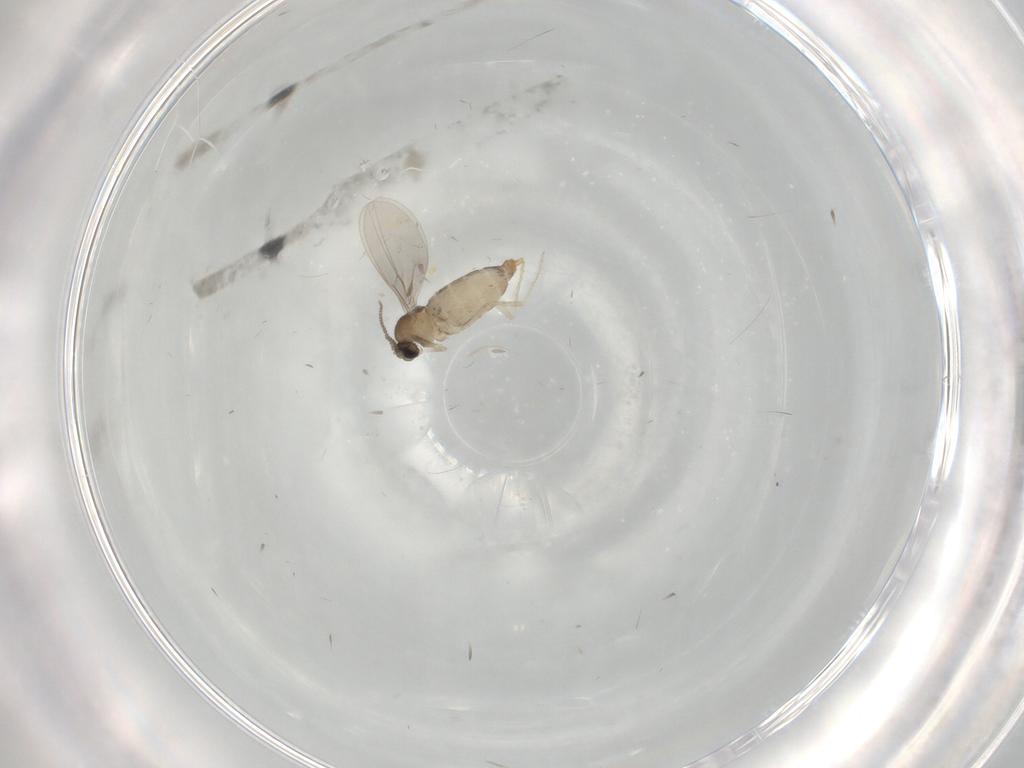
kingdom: Animalia
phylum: Arthropoda
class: Insecta
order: Diptera
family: Cecidomyiidae
